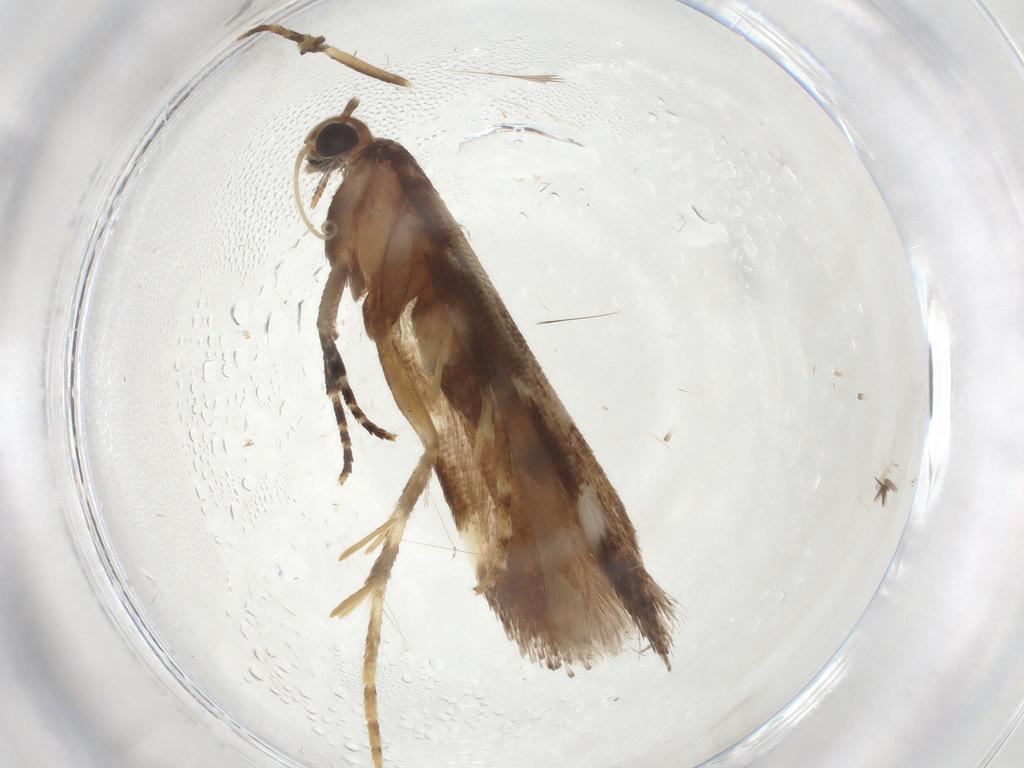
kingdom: Animalia
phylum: Arthropoda
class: Insecta
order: Lepidoptera
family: Gelechiidae
